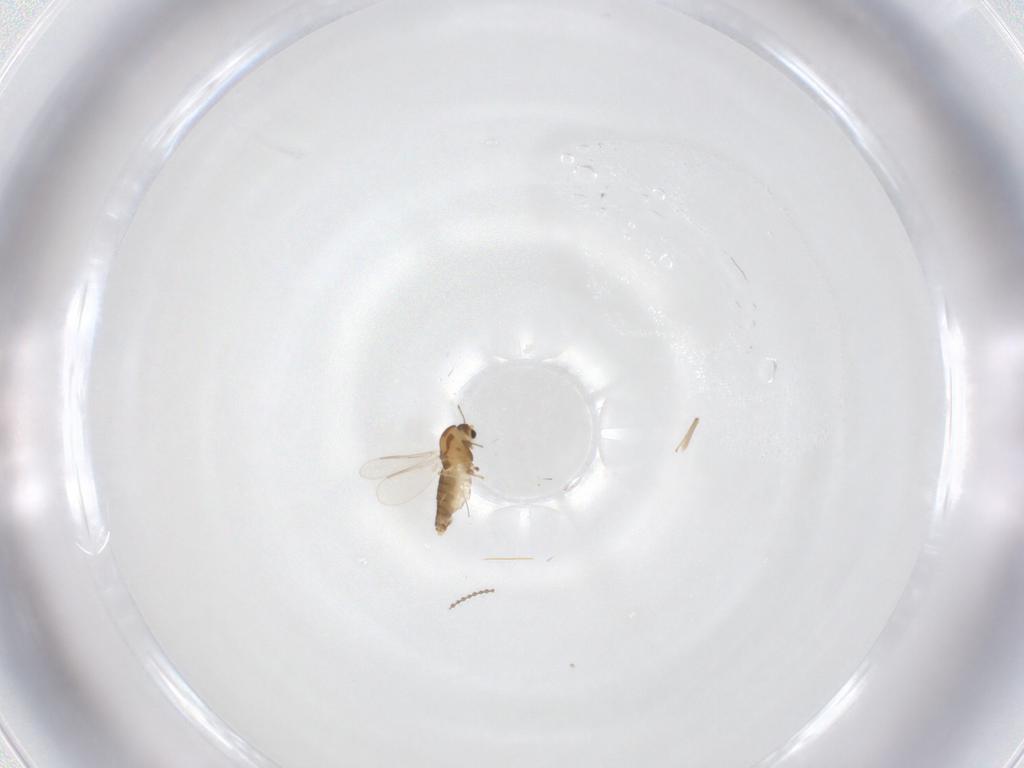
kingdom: Animalia
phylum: Arthropoda
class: Insecta
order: Diptera
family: Chironomidae
